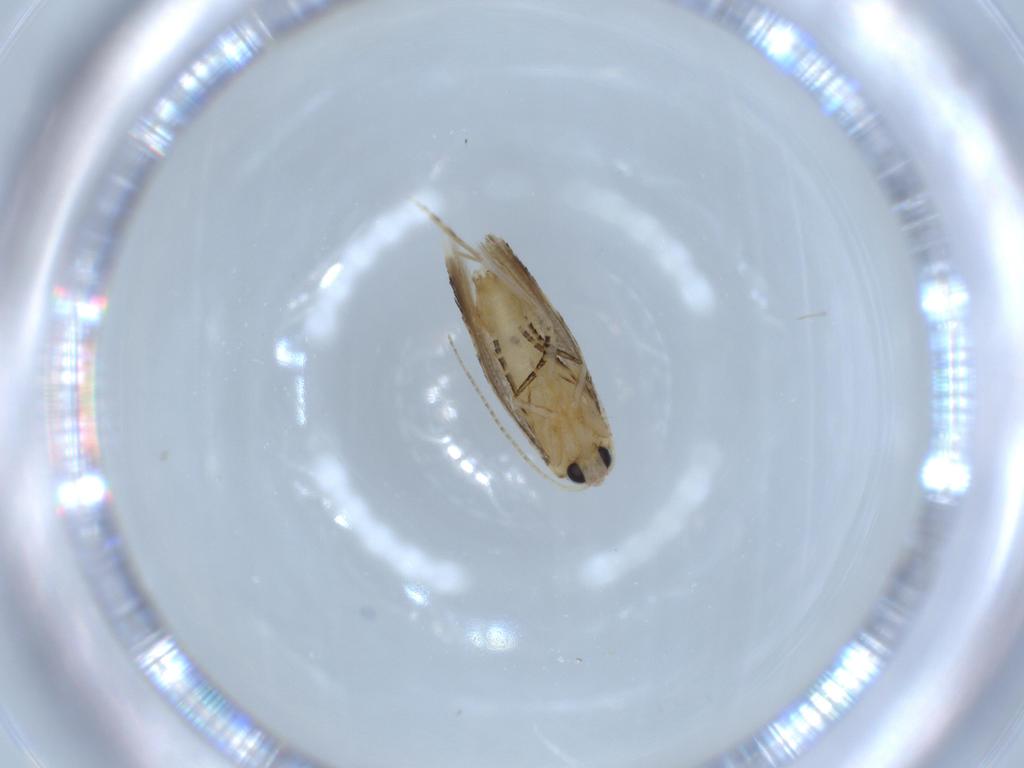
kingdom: Animalia
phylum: Arthropoda
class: Insecta
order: Lepidoptera
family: Bucculatricidae
